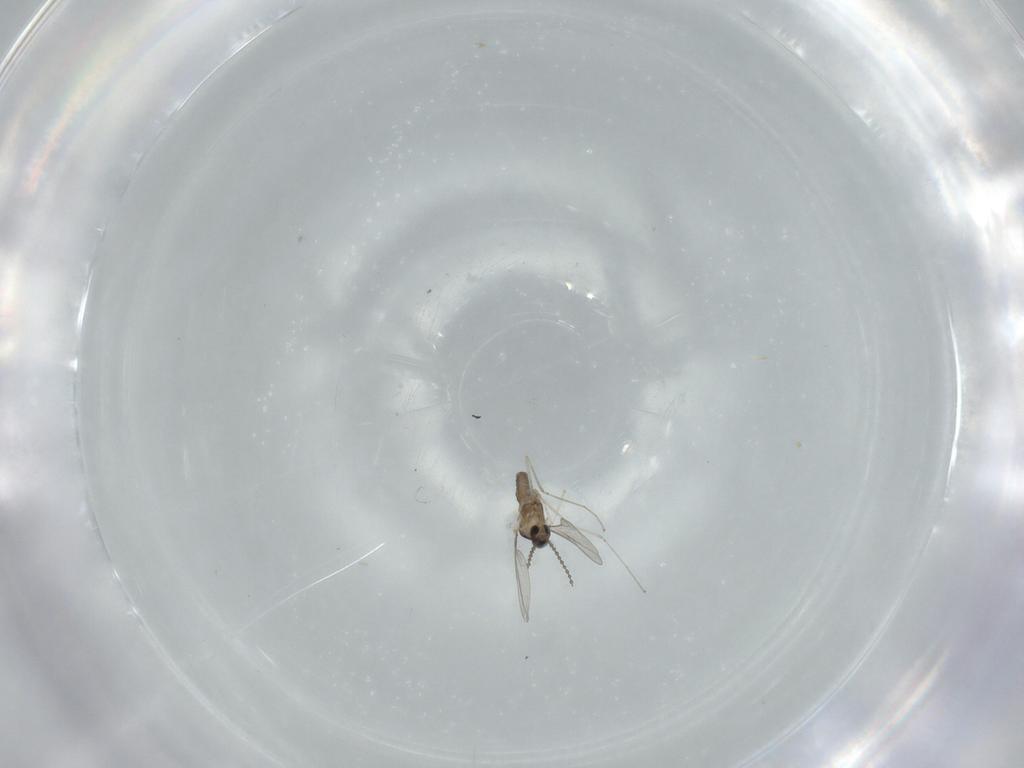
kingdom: Animalia
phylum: Arthropoda
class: Insecta
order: Diptera
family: Cecidomyiidae
